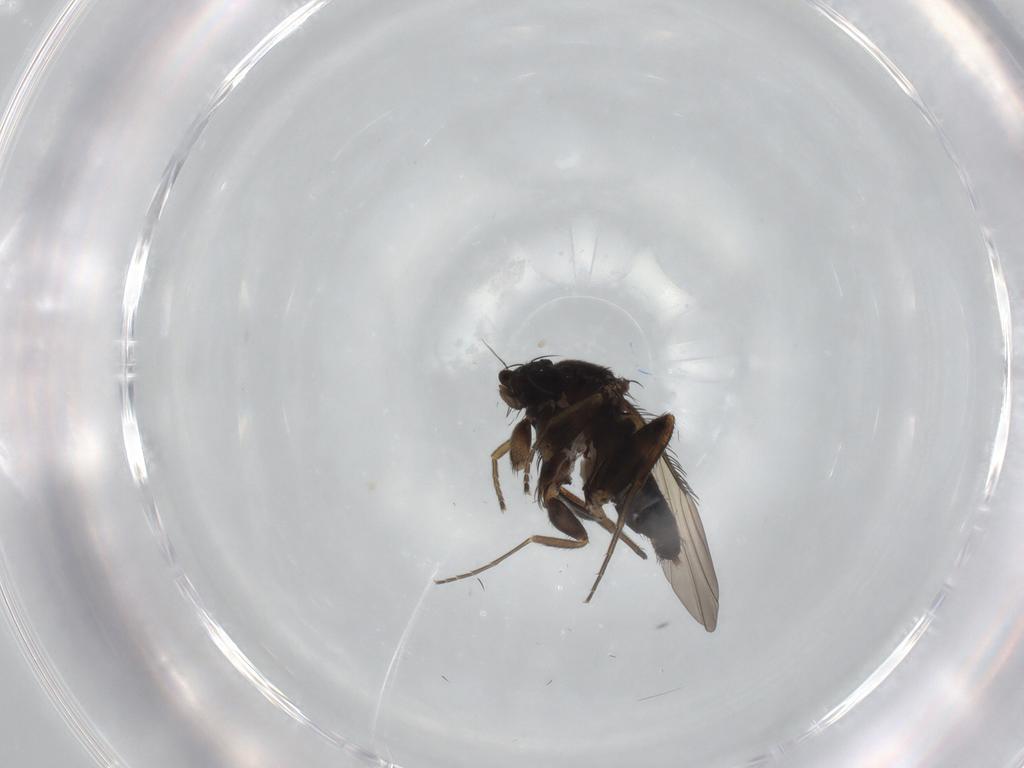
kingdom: Animalia
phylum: Arthropoda
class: Insecta
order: Diptera
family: Phoridae
